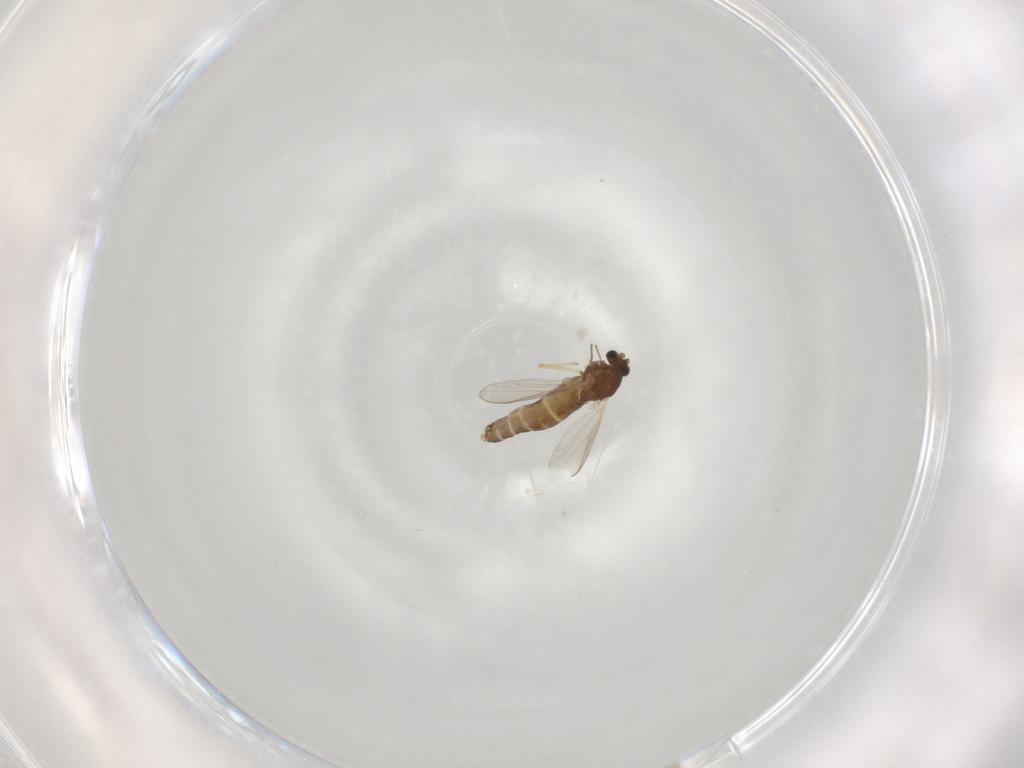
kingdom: Animalia
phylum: Arthropoda
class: Insecta
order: Diptera
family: Chironomidae
